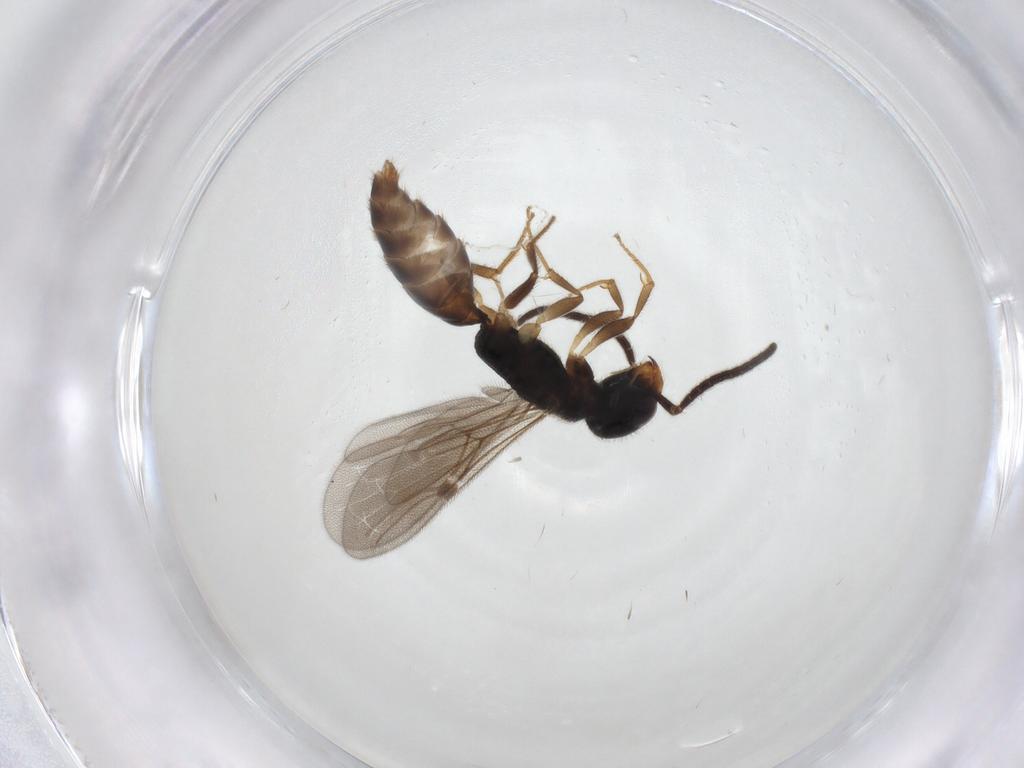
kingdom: Animalia
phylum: Arthropoda
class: Insecta
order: Hymenoptera
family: Bethylidae
